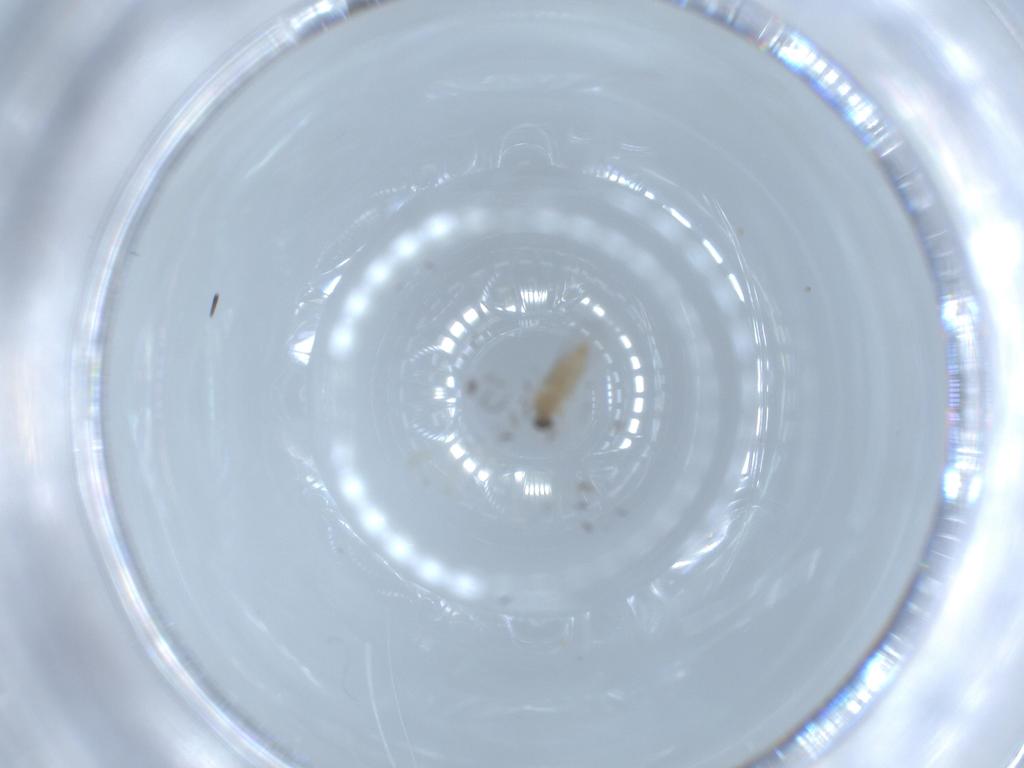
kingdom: Animalia
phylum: Arthropoda
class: Insecta
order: Diptera
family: Cecidomyiidae
